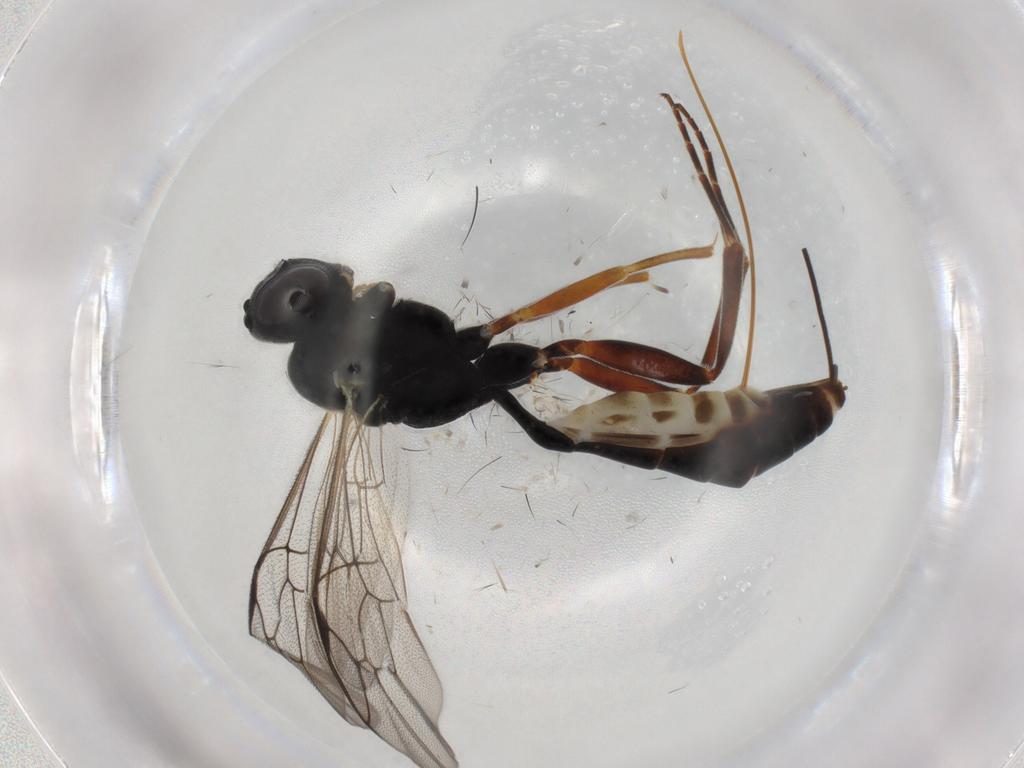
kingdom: Animalia
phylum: Arthropoda
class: Insecta
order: Hymenoptera
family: Ichneumonidae
